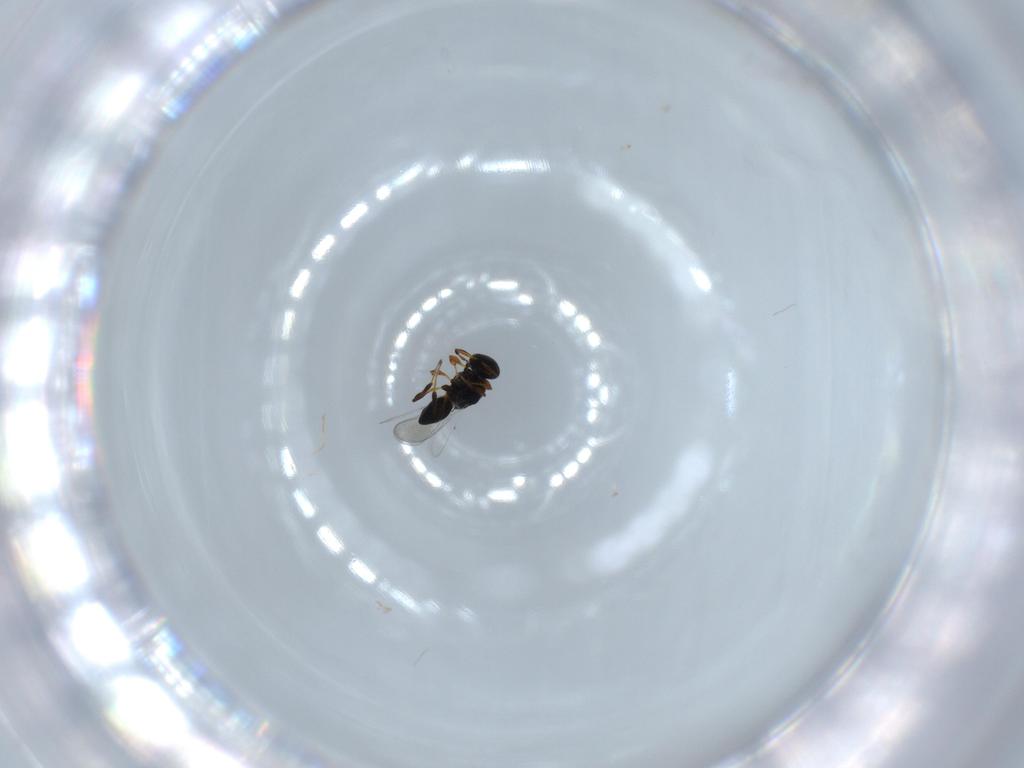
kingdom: Animalia
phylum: Arthropoda
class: Insecta
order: Hymenoptera
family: Platygastridae
